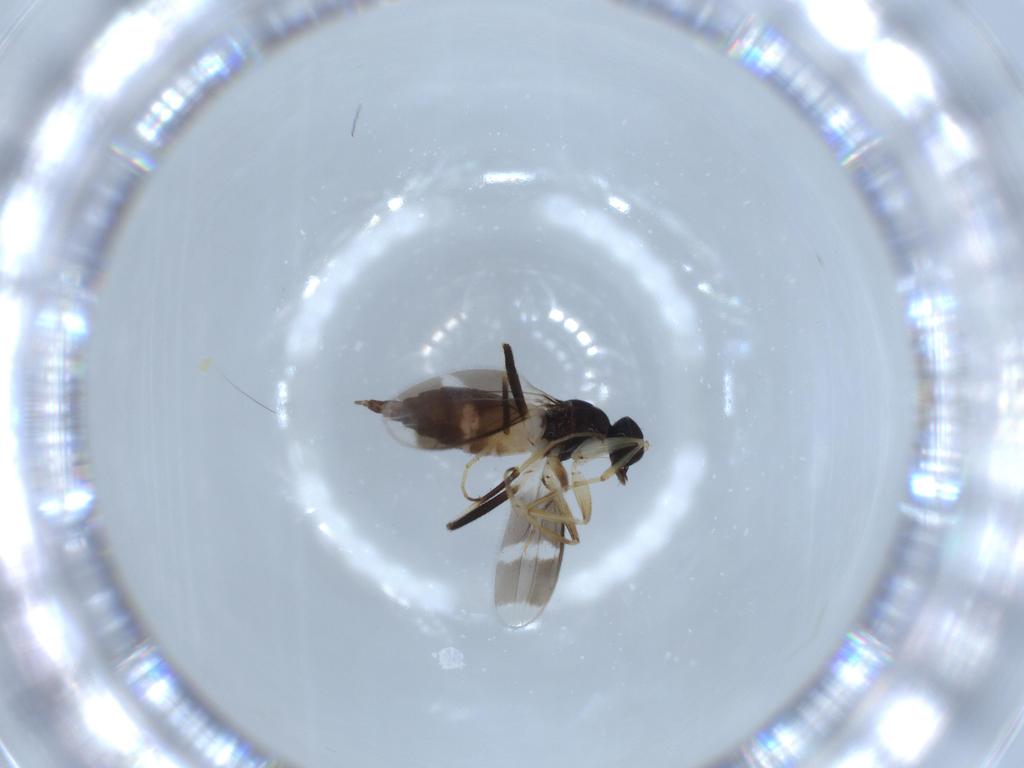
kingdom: Animalia
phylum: Arthropoda
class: Insecta
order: Diptera
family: Hybotidae
